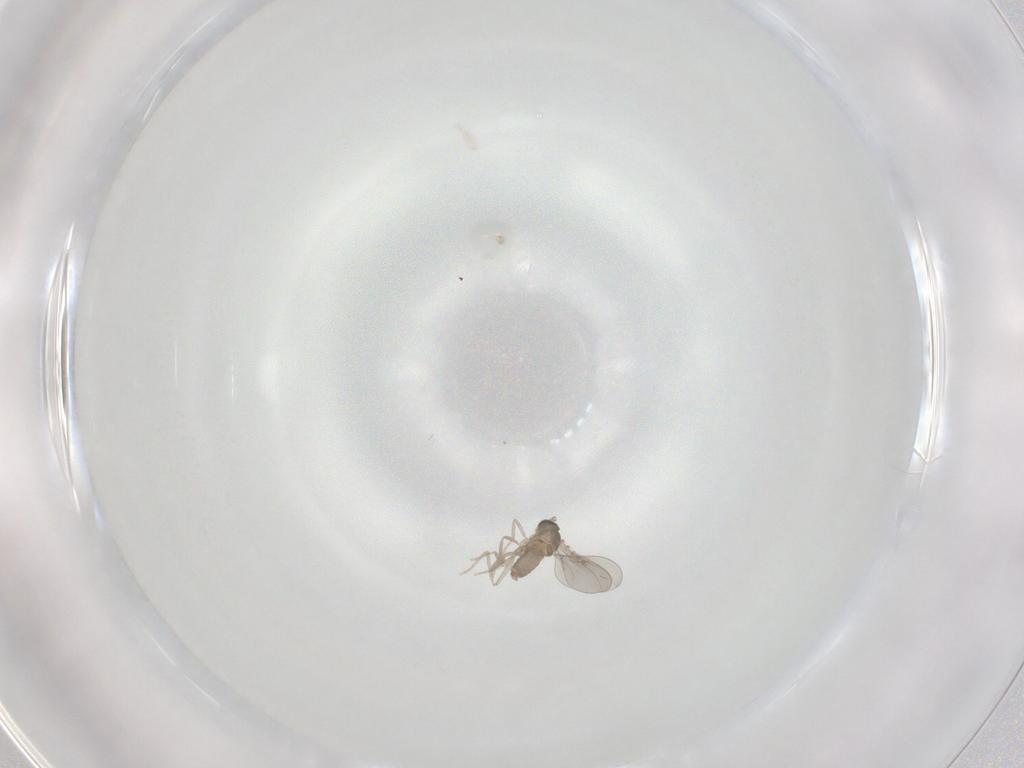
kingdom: Animalia
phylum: Arthropoda
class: Insecta
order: Diptera
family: Cecidomyiidae
